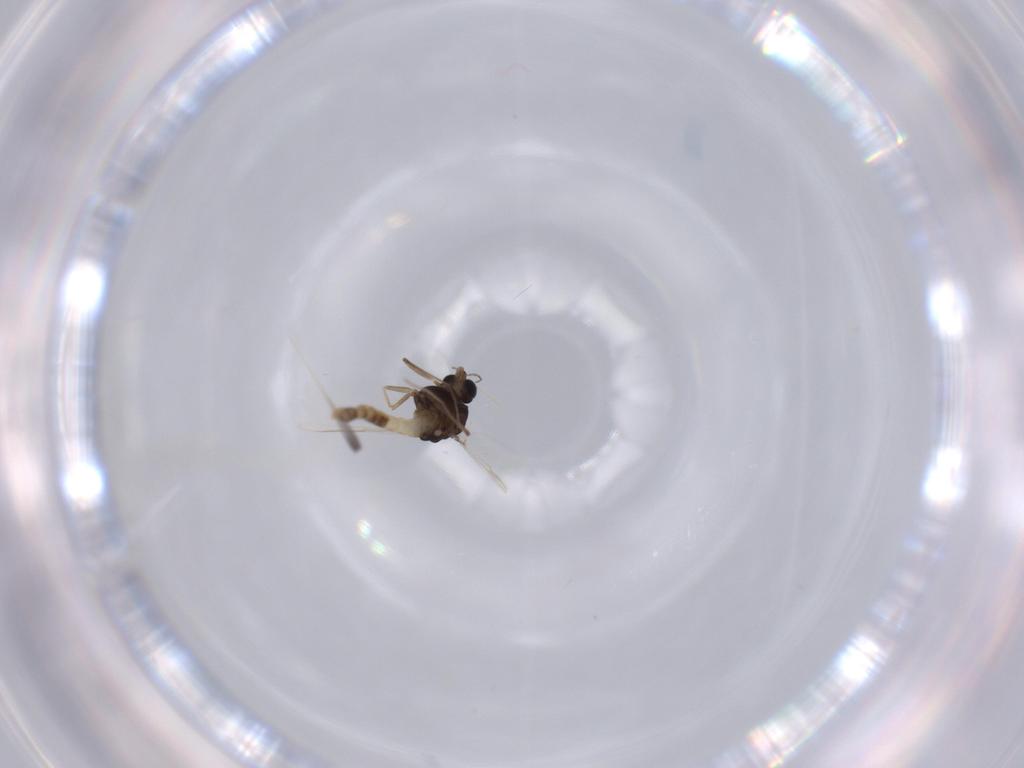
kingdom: Animalia
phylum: Arthropoda
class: Insecta
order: Diptera
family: Chironomidae
